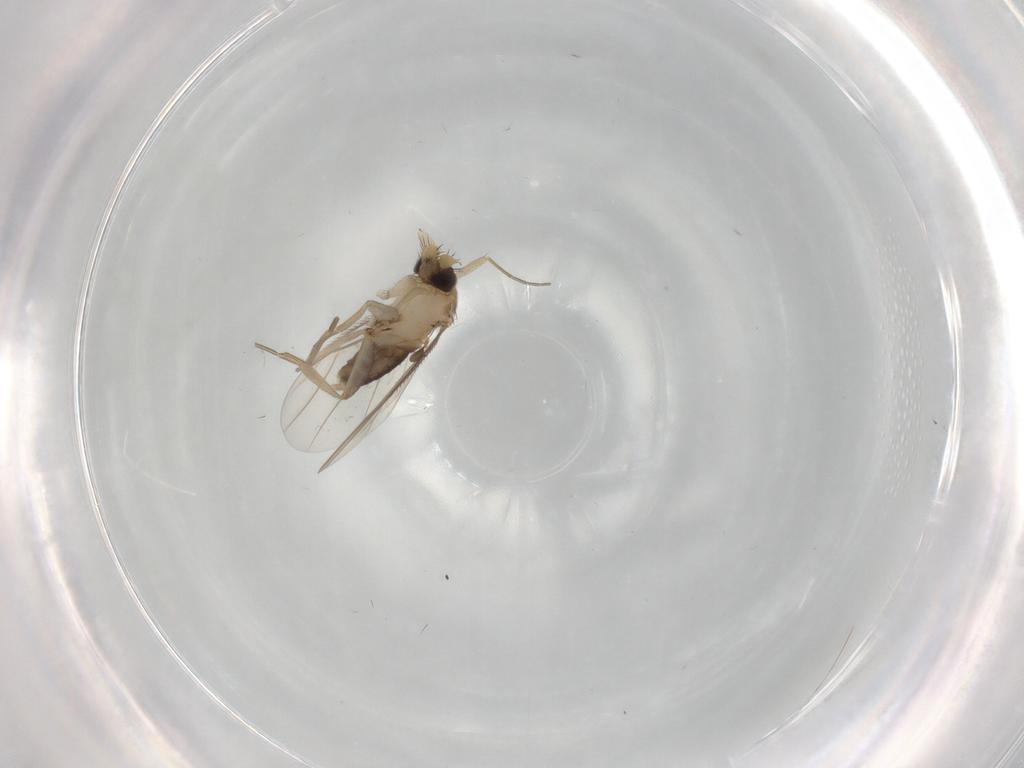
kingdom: Animalia
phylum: Arthropoda
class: Insecta
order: Diptera
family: Phoridae
